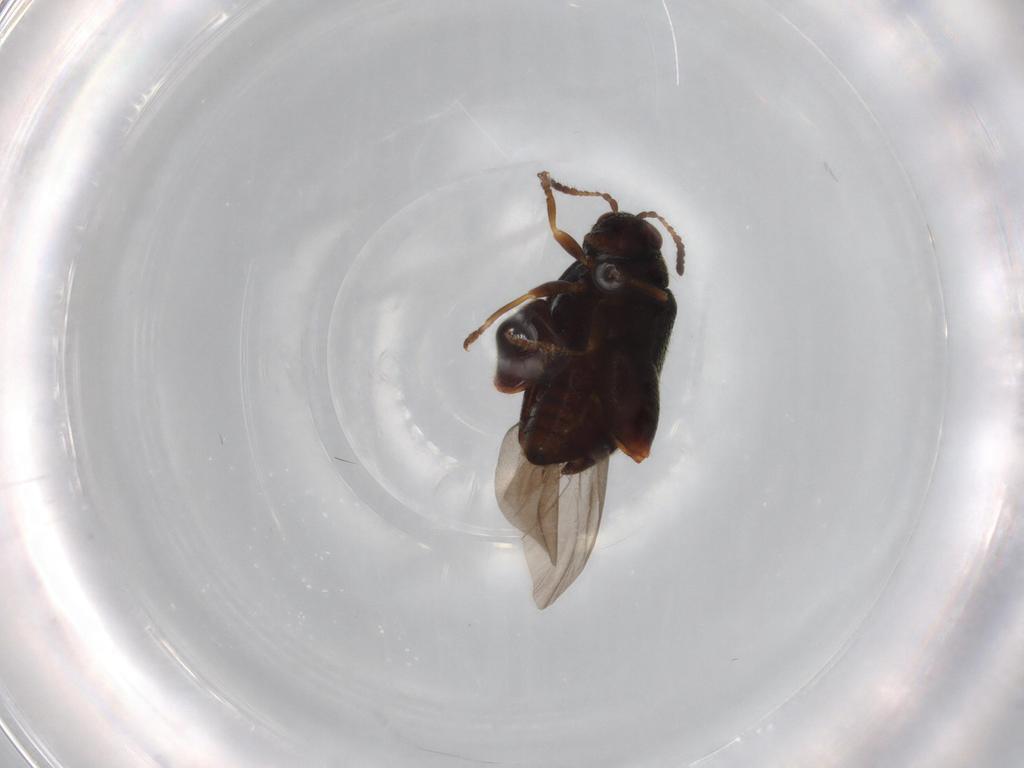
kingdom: Animalia
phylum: Arthropoda
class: Insecta
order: Coleoptera
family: Chrysomelidae
